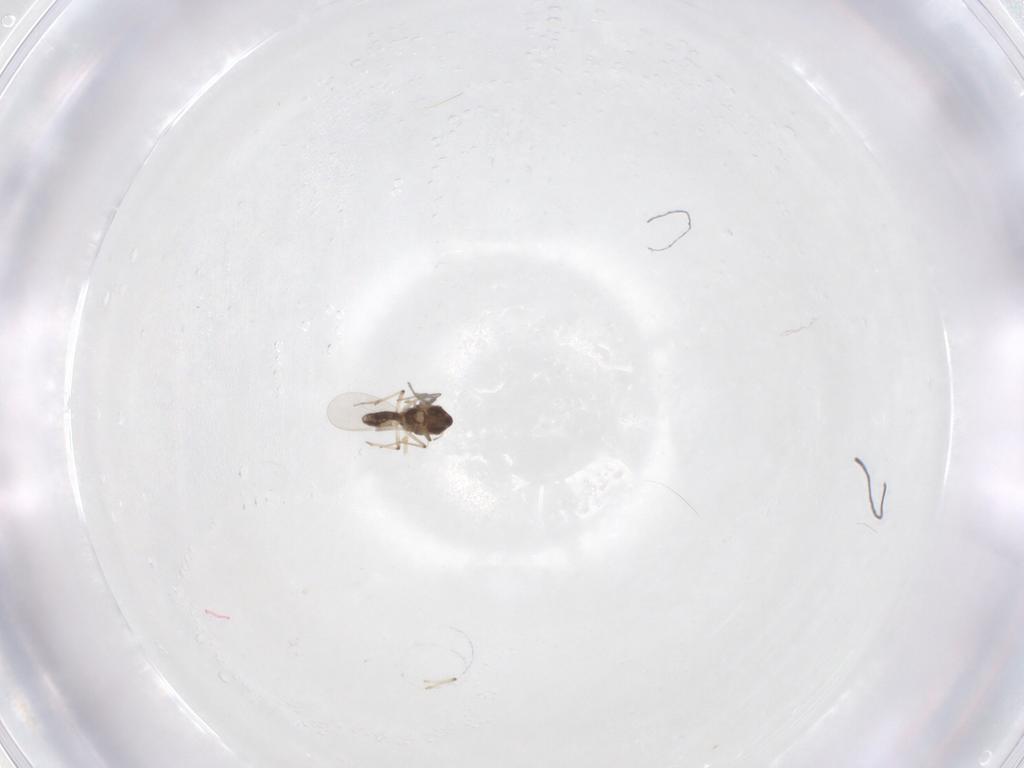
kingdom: Animalia
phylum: Arthropoda
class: Insecta
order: Diptera
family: Chironomidae
